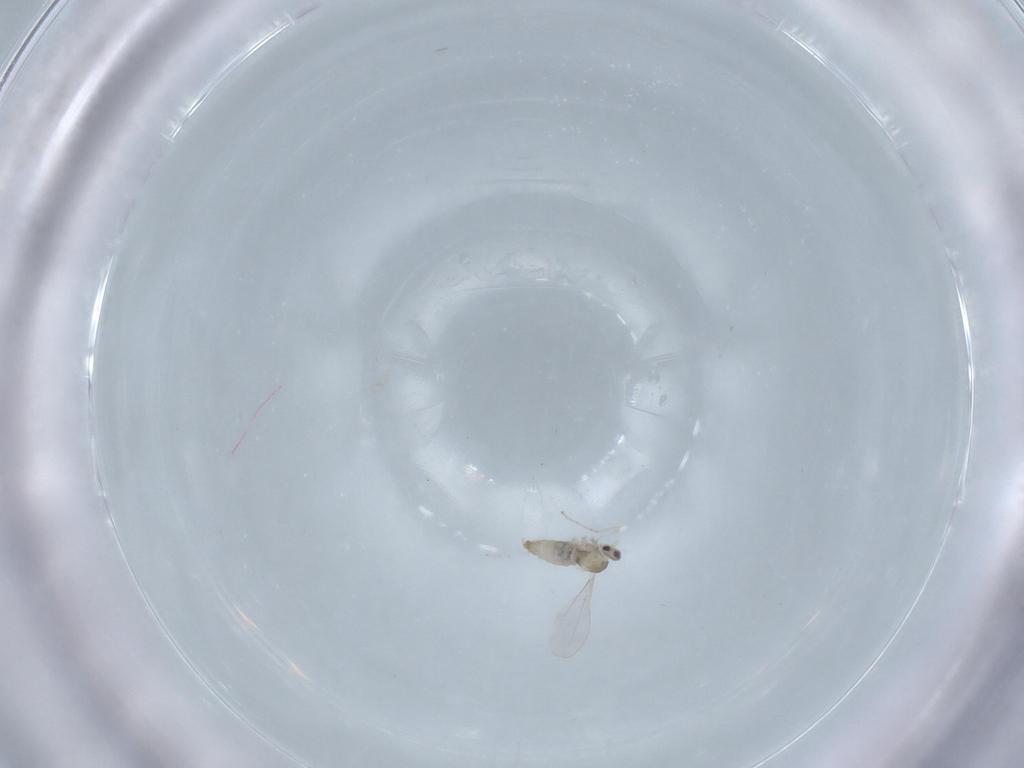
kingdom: Animalia
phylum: Arthropoda
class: Insecta
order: Diptera
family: Cecidomyiidae
